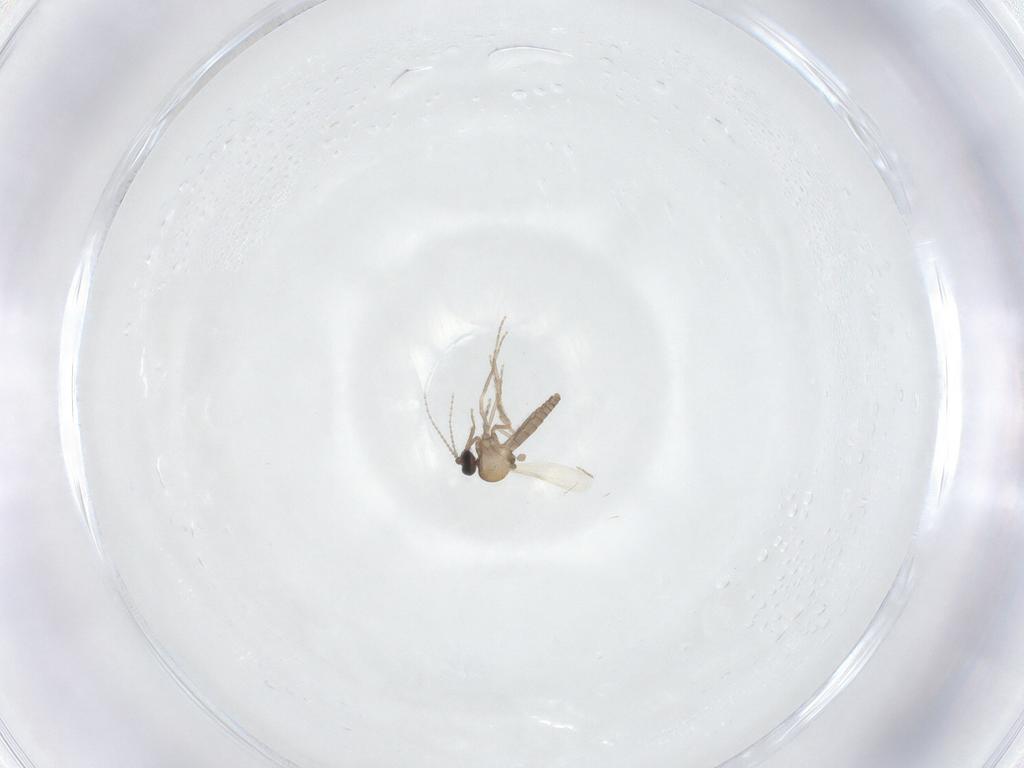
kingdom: Animalia
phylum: Arthropoda
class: Insecta
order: Diptera
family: Ceratopogonidae
